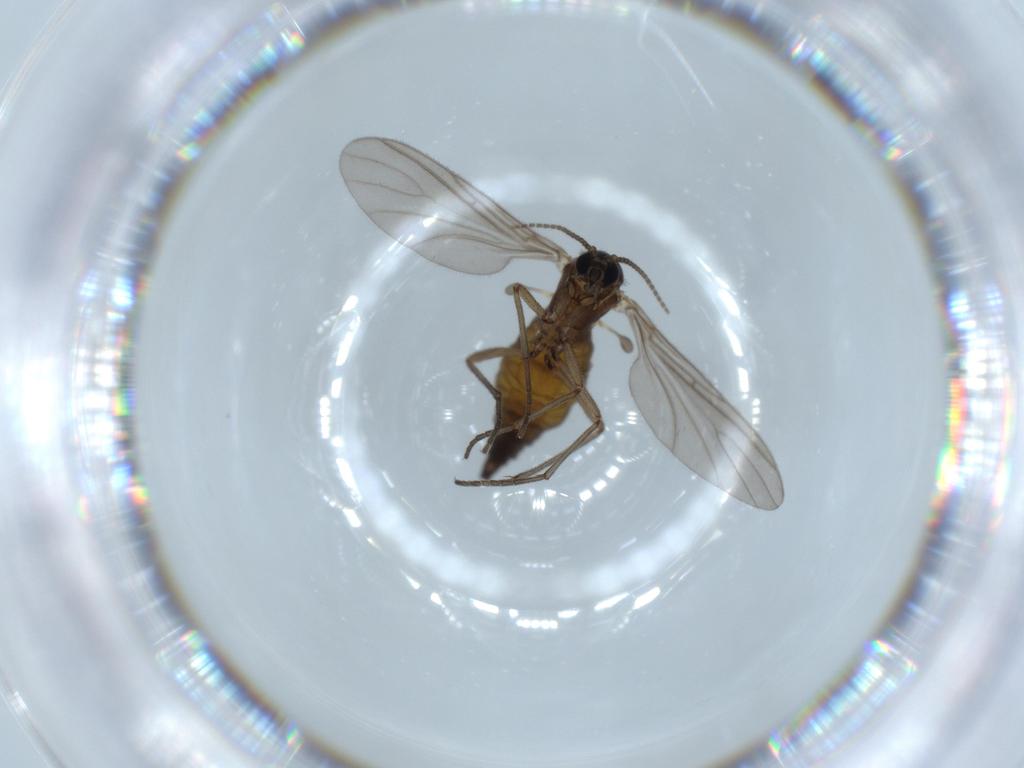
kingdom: Animalia
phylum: Arthropoda
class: Insecta
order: Diptera
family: Sciaridae
